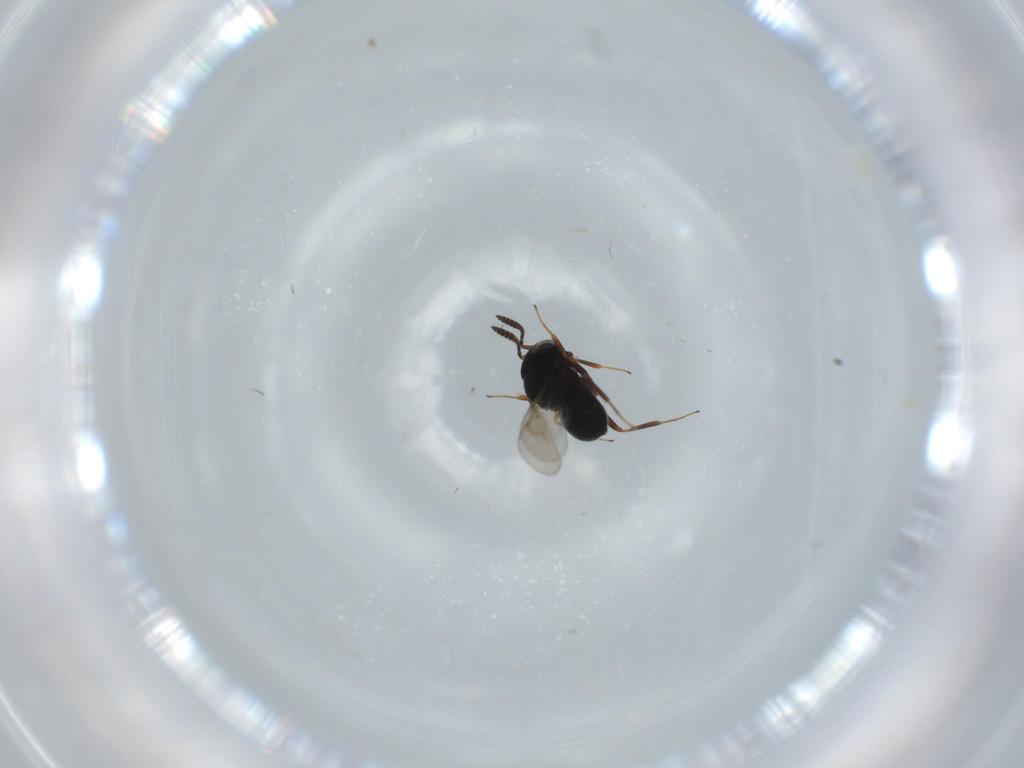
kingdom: Animalia
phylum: Arthropoda
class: Insecta
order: Hymenoptera
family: Scelionidae
